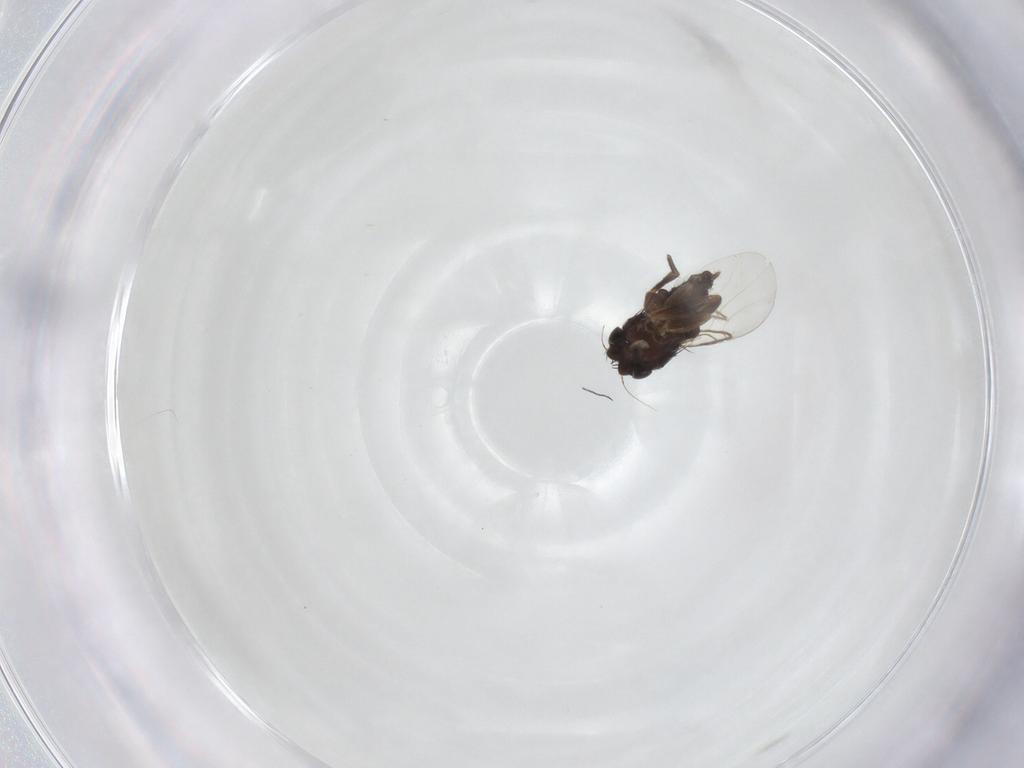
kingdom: Animalia
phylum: Arthropoda
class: Insecta
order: Diptera
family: Phoridae
